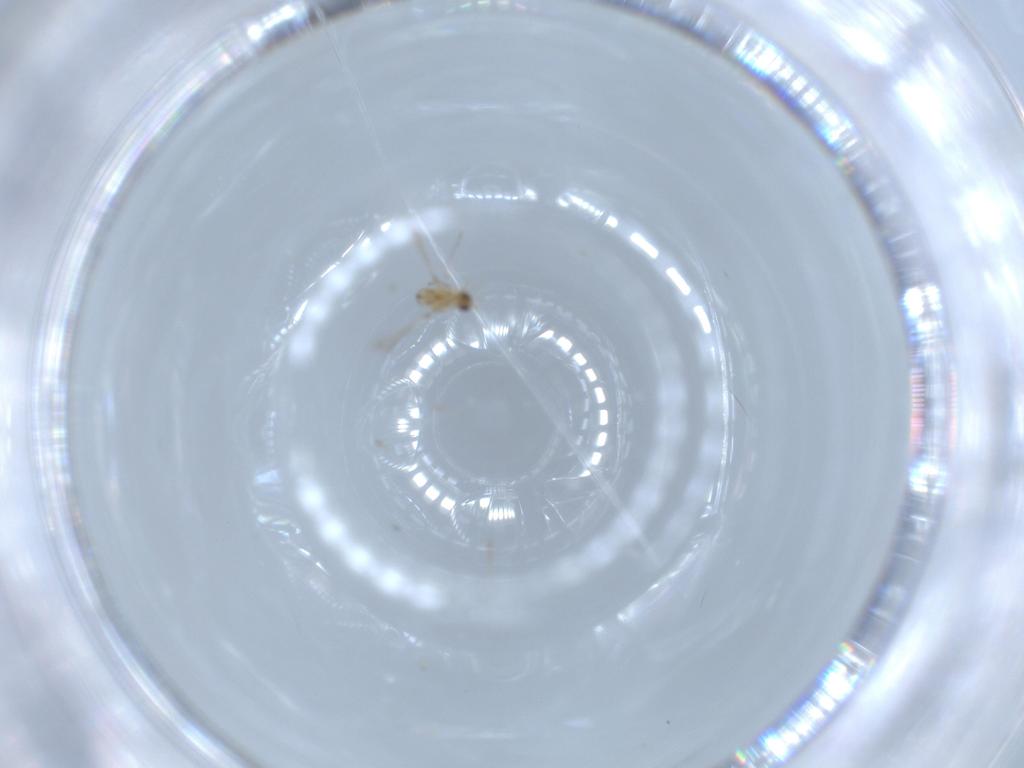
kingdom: Animalia
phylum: Arthropoda
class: Insecta
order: Hymenoptera
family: Mymaridae
